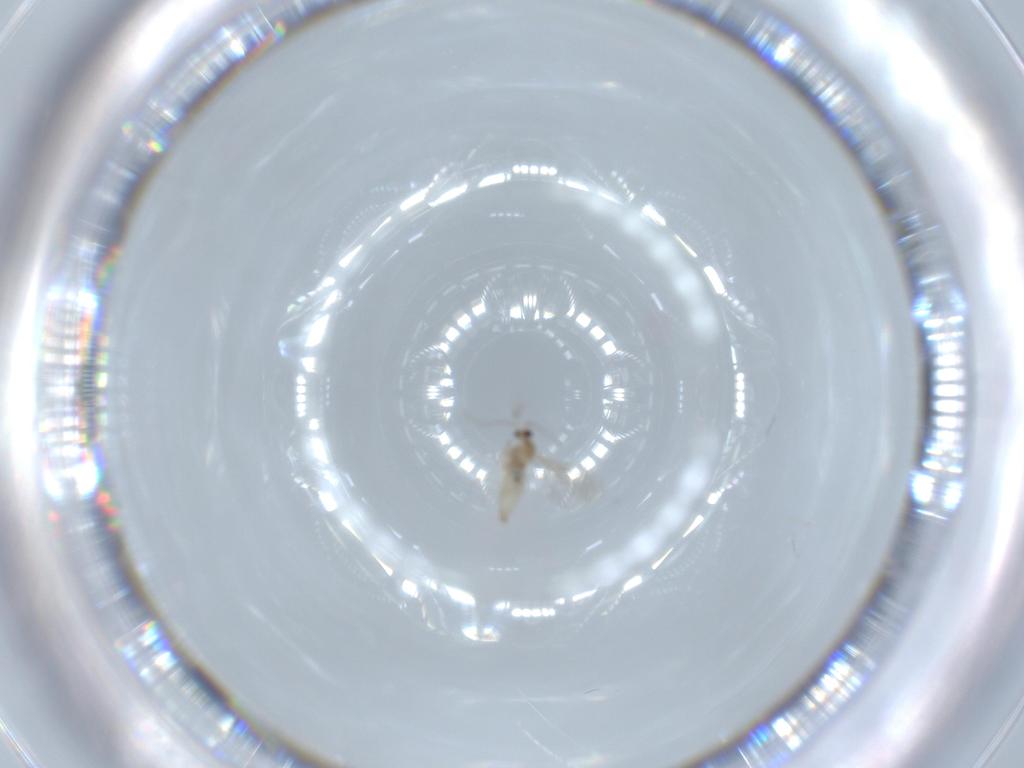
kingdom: Animalia
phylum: Arthropoda
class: Insecta
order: Diptera
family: Cecidomyiidae
